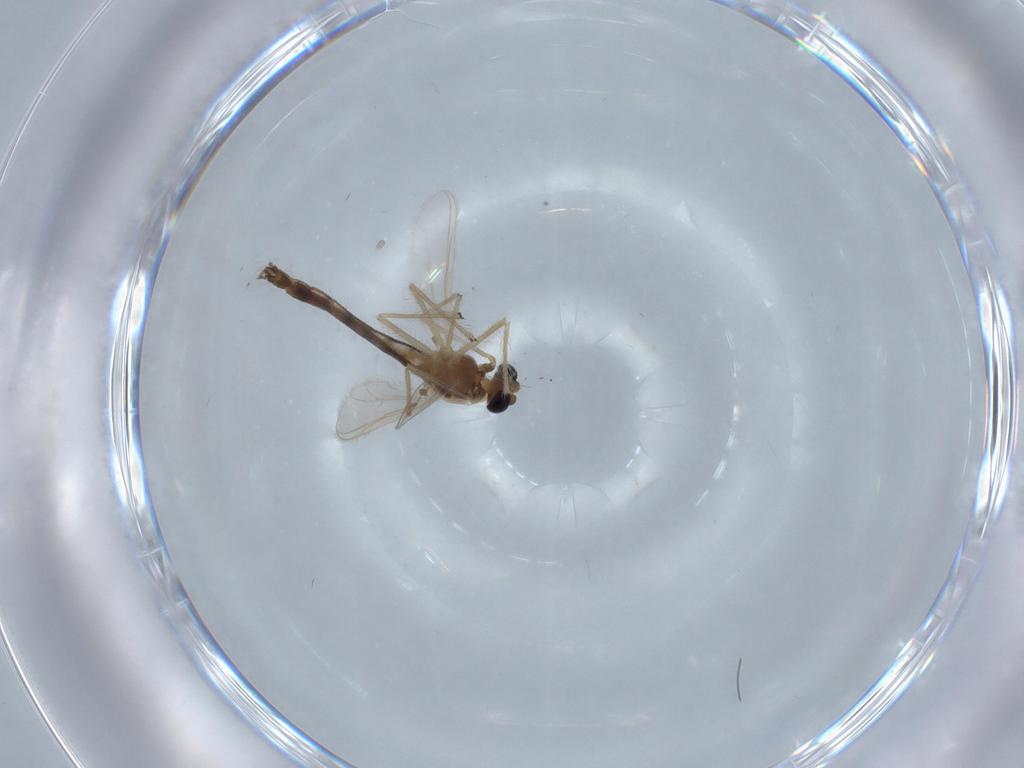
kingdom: Animalia
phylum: Arthropoda
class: Insecta
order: Diptera
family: Chironomidae
